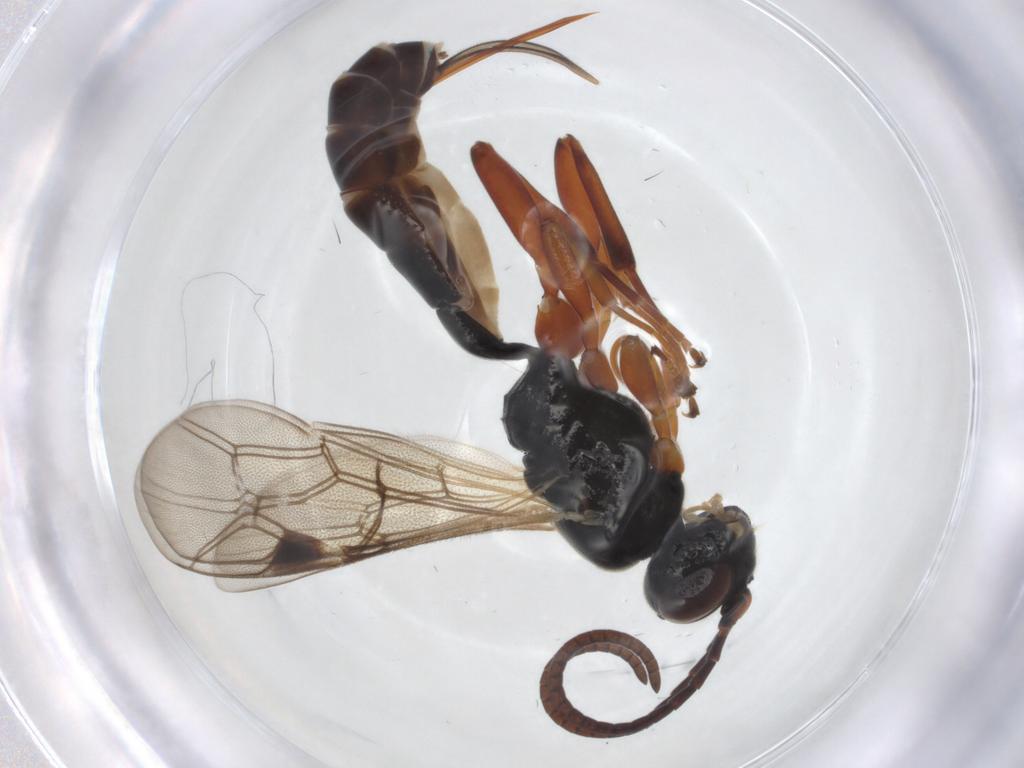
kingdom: Animalia
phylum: Arthropoda
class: Insecta
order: Hymenoptera
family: Ichneumonidae
